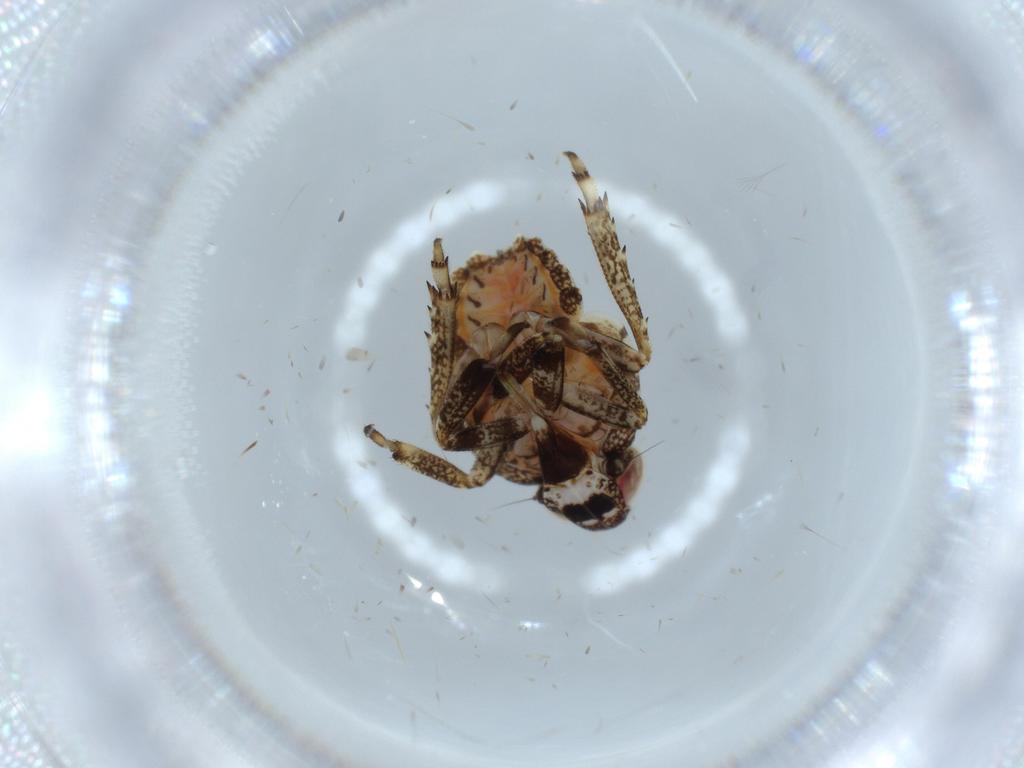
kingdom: Animalia
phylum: Arthropoda
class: Insecta
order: Hemiptera
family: Issidae
